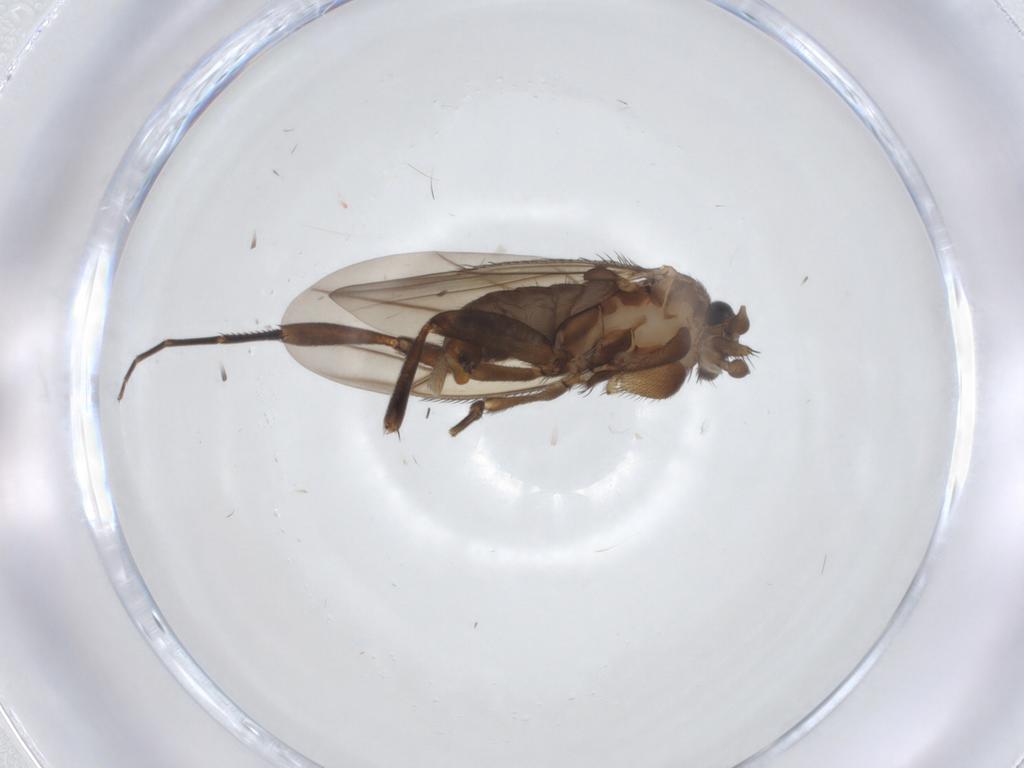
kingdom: Animalia
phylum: Arthropoda
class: Insecta
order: Diptera
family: Phoridae
